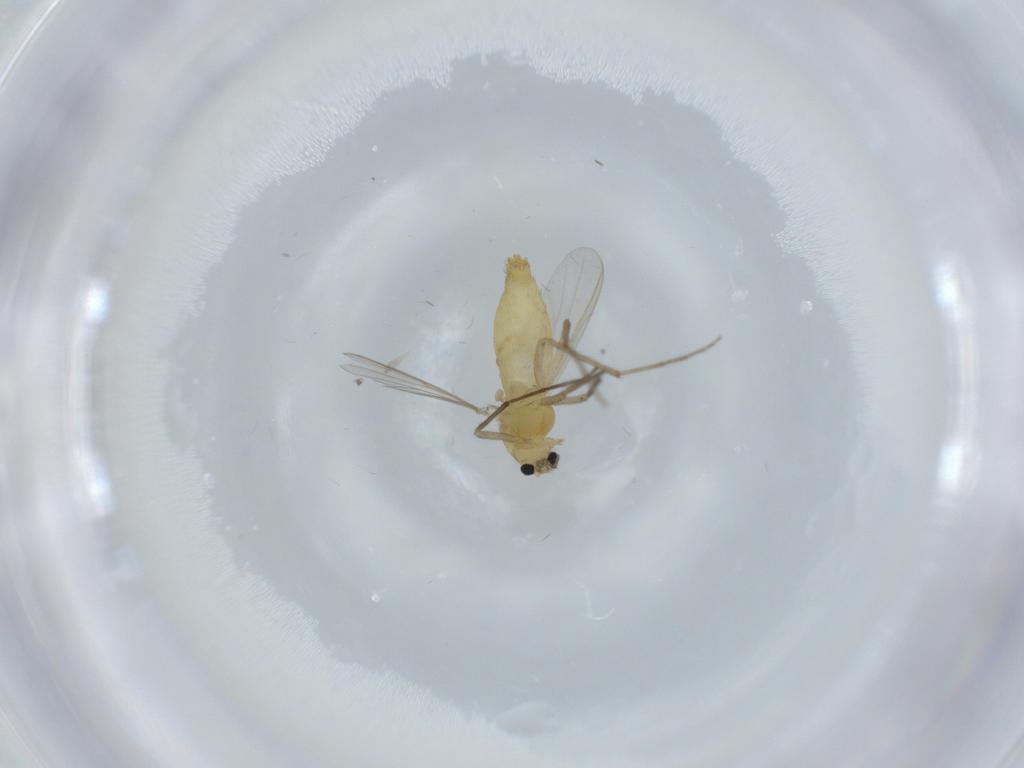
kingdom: Animalia
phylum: Arthropoda
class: Insecta
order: Diptera
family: Chironomidae
